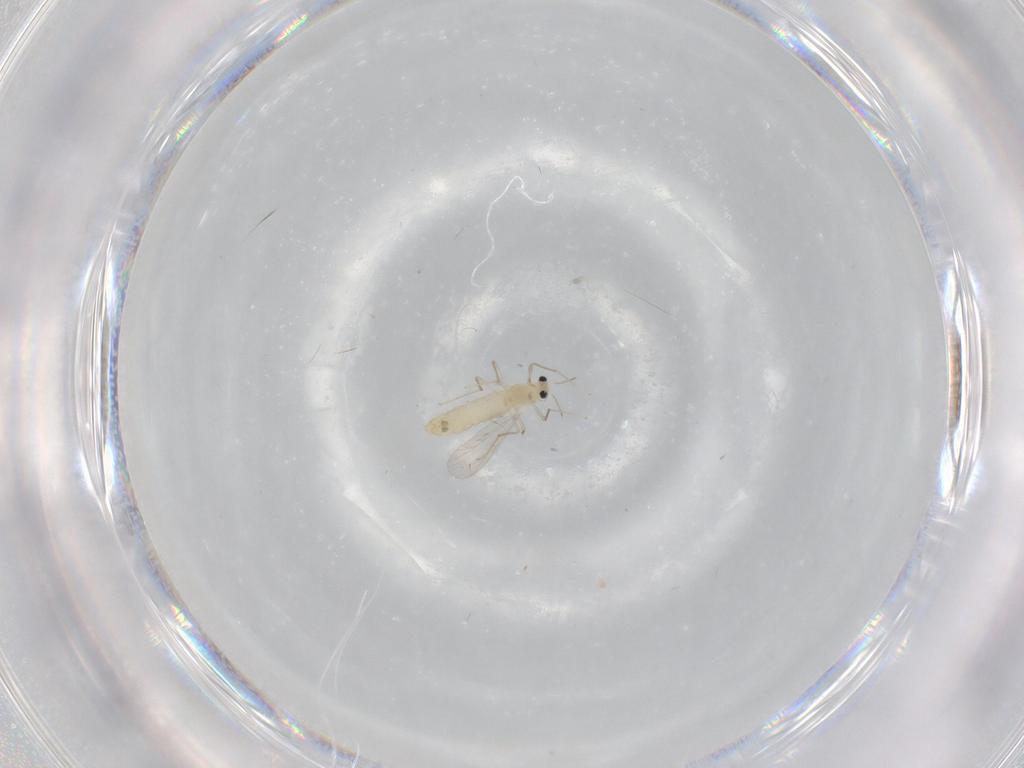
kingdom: Animalia
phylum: Arthropoda
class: Insecta
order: Diptera
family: Chironomidae
